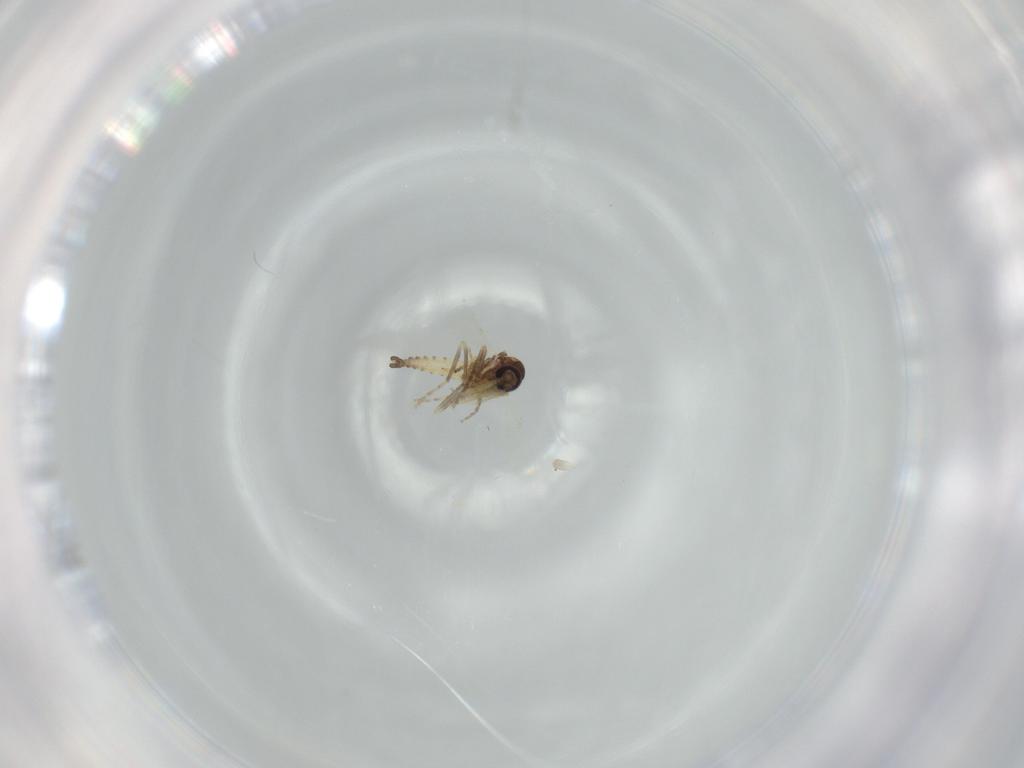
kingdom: Animalia
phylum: Arthropoda
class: Insecta
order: Diptera
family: Ceratopogonidae
